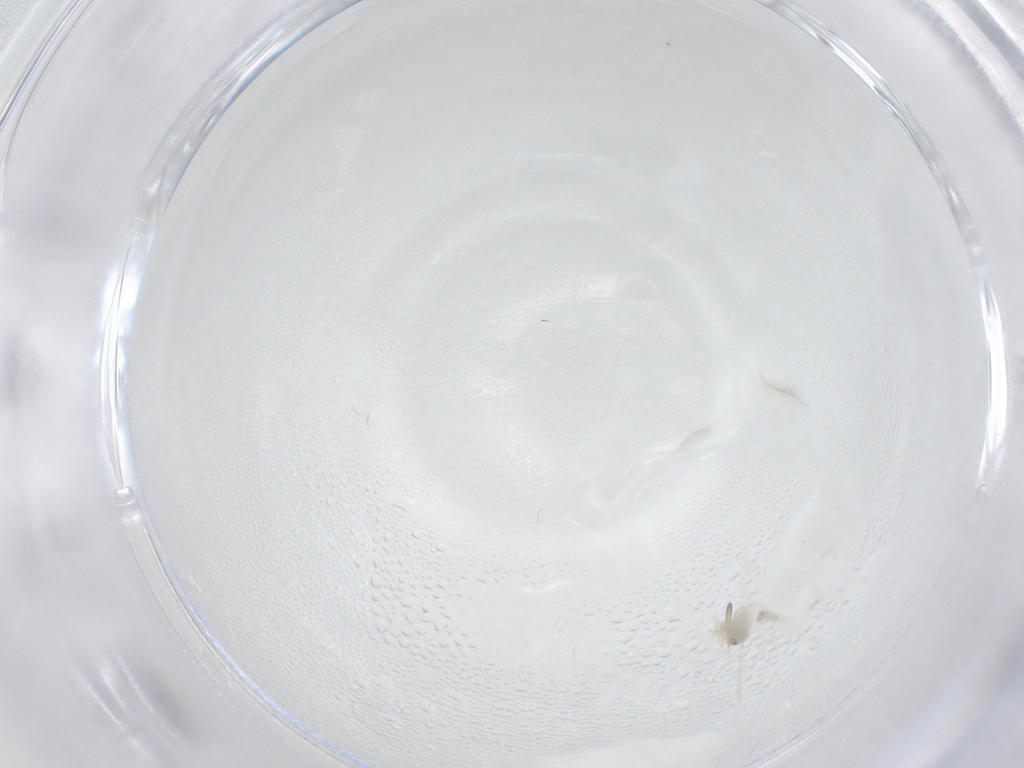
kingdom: Animalia
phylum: Arthropoda
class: Insecta
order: Hemiptera
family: Aleyrodidae
